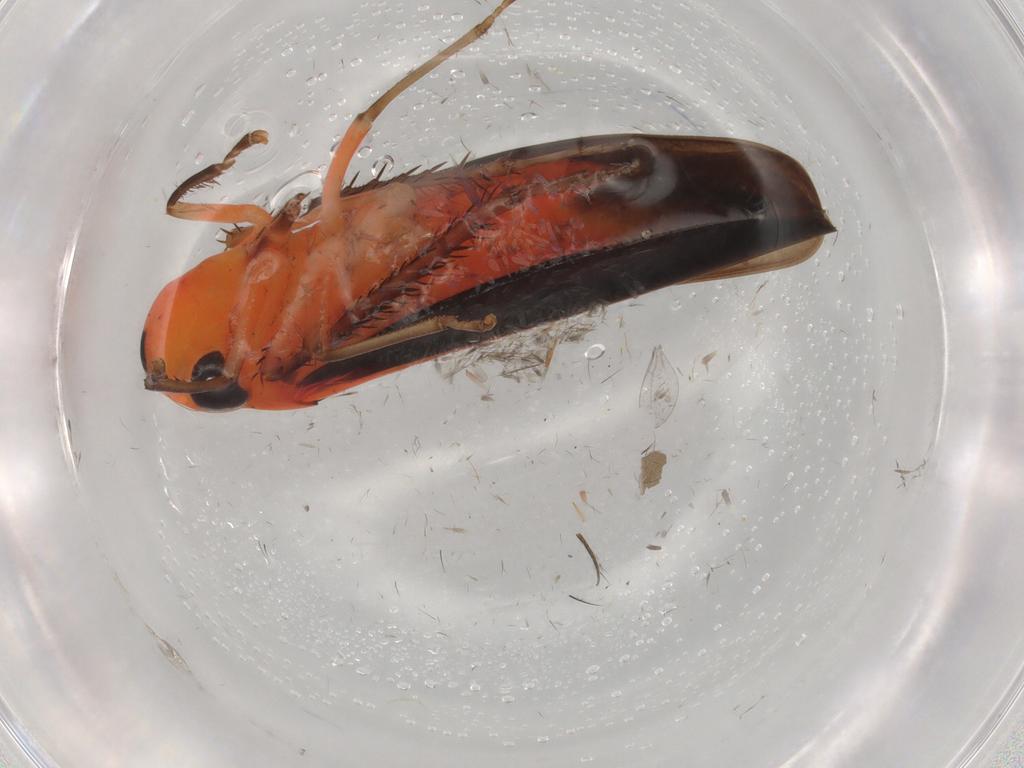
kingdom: Animalia
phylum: Arthropoda
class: Insecta
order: Hemiptera
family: Cicadellidae
